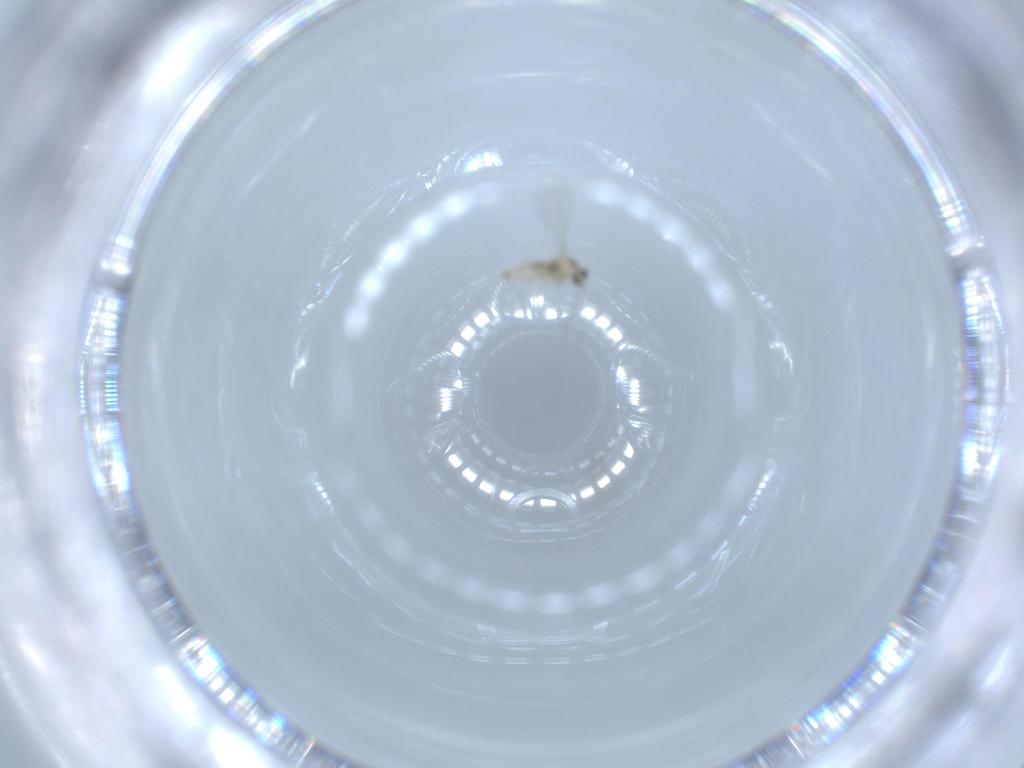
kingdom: Animalia
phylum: Arthropoda
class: Insecta
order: Diptera
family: Cecidomyiidae
